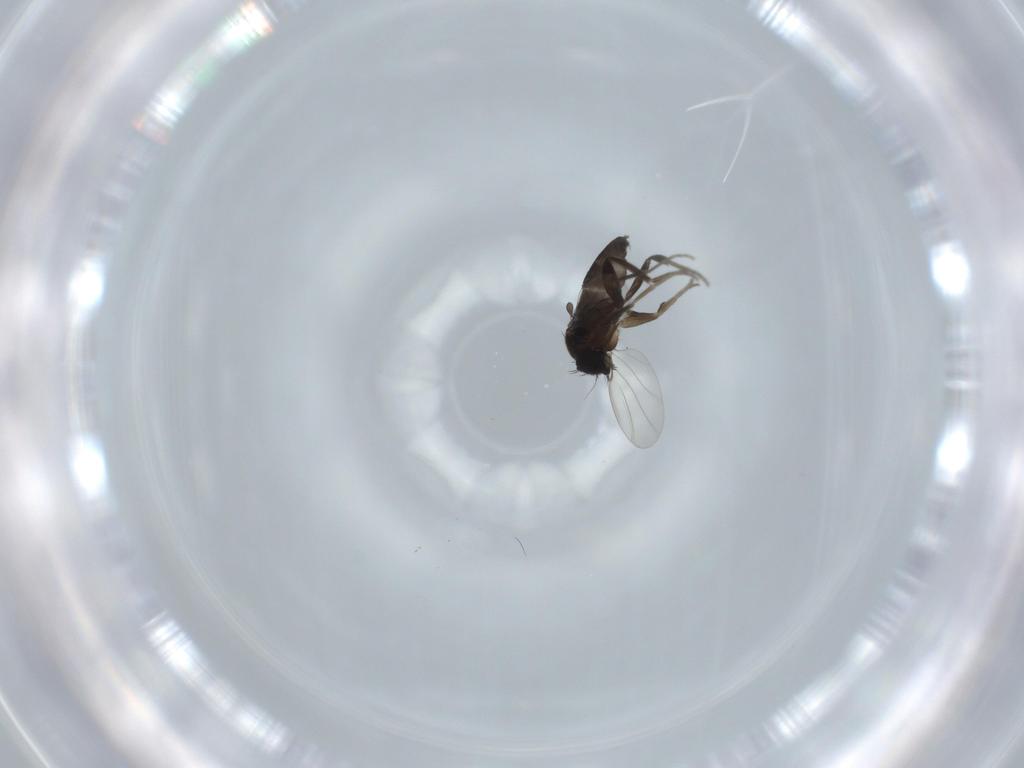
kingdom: Animalia
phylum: Arthropoda
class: Insecta
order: Diptera
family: Phoridae
